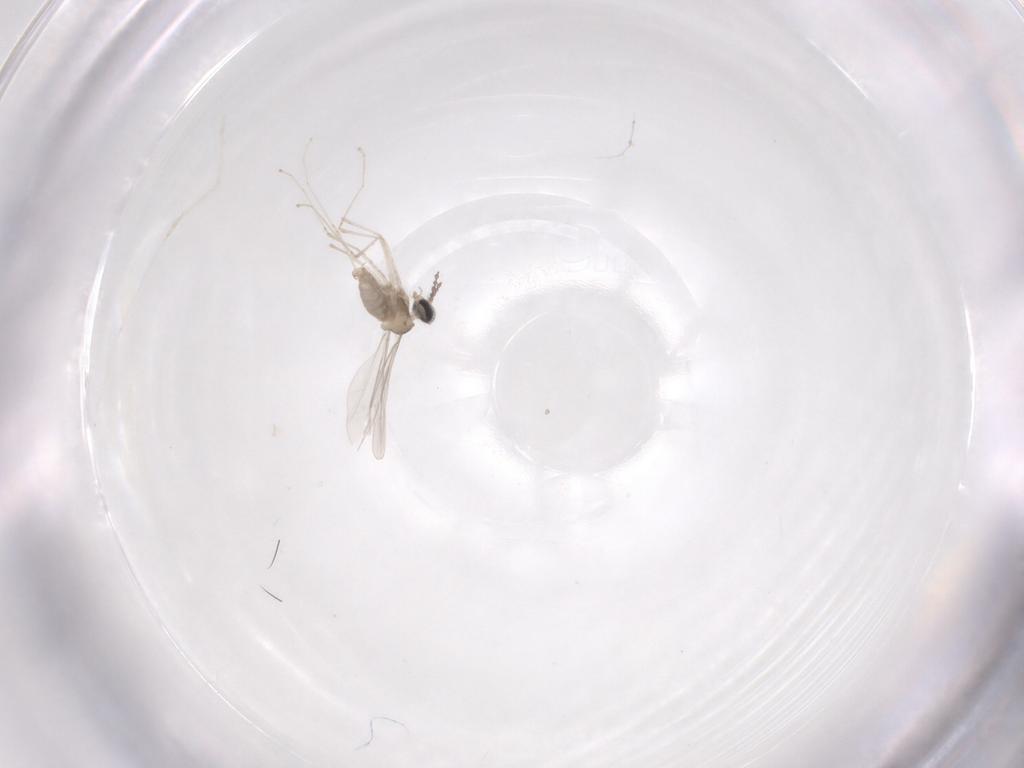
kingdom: Animalia
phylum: Arthropoda
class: Insecta
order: Diptera
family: Cecidomyiidae
